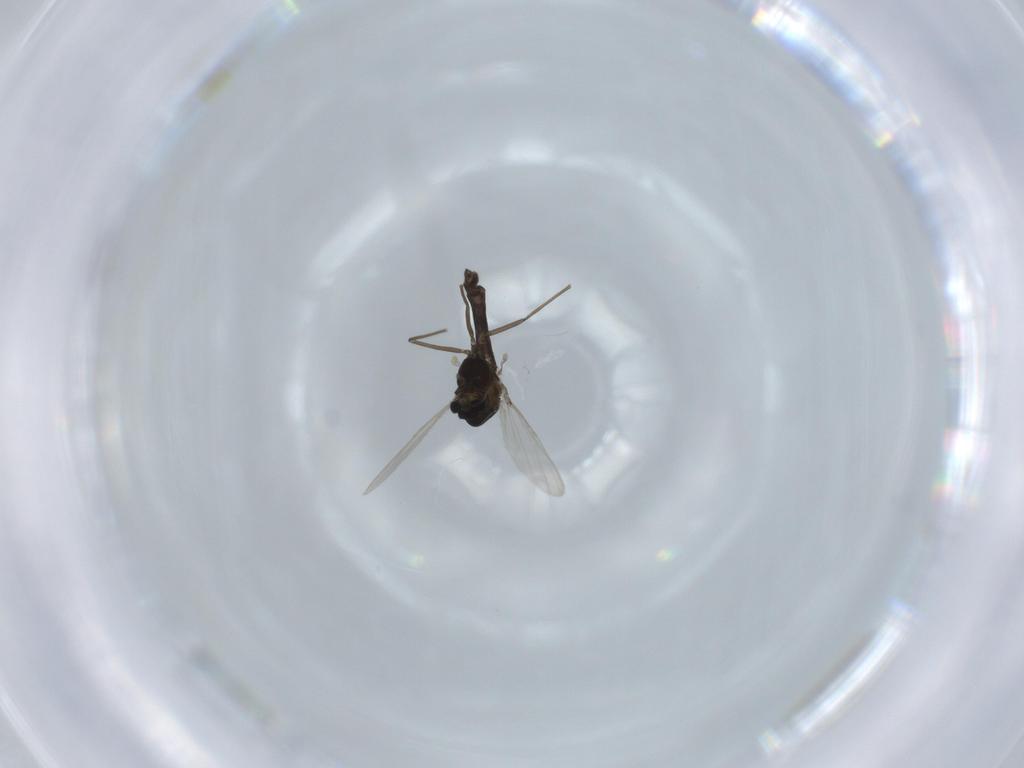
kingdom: Animalia
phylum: Arthropoda
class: Insecta
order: Diptera
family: Chironomidae
